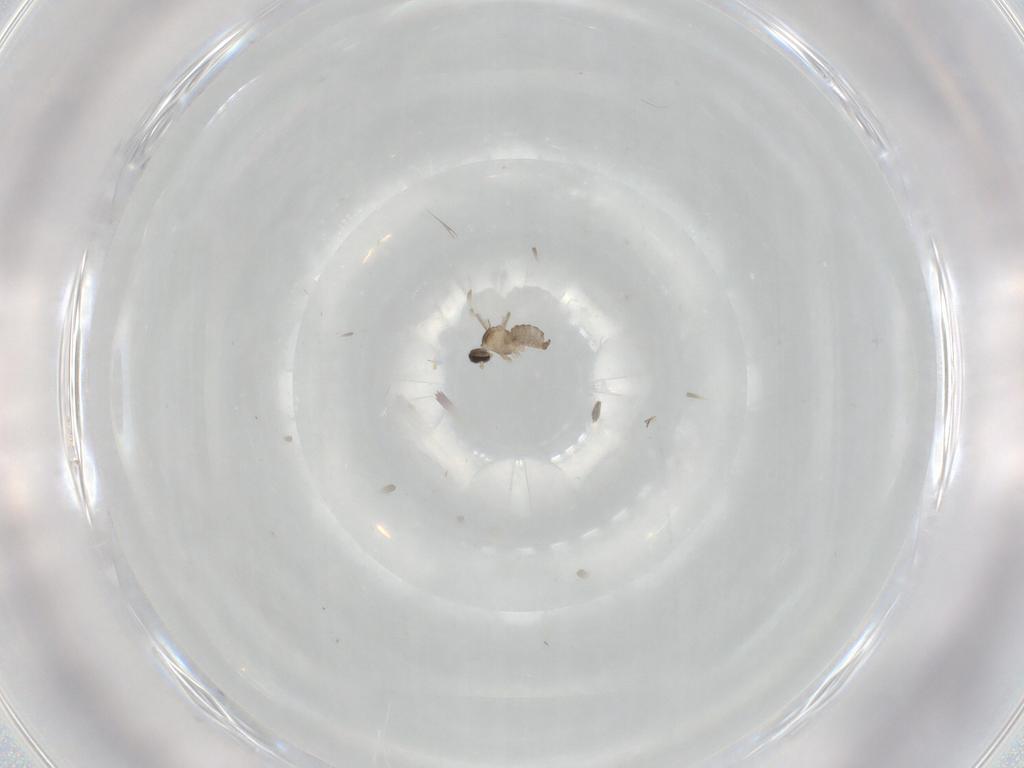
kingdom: Animalia
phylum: Arthropoda
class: Insecta
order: Diptera
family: Cecidomyiidae
